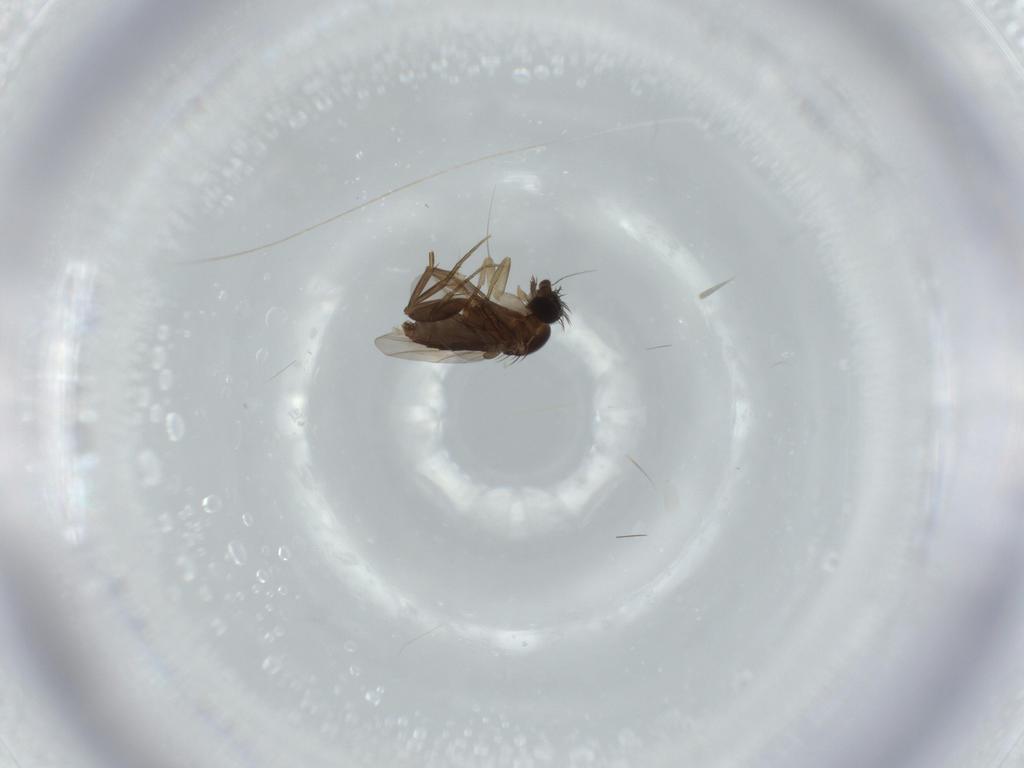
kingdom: Animalia
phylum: Arthropoda
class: Insecta
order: Diptera
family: Phoridae
